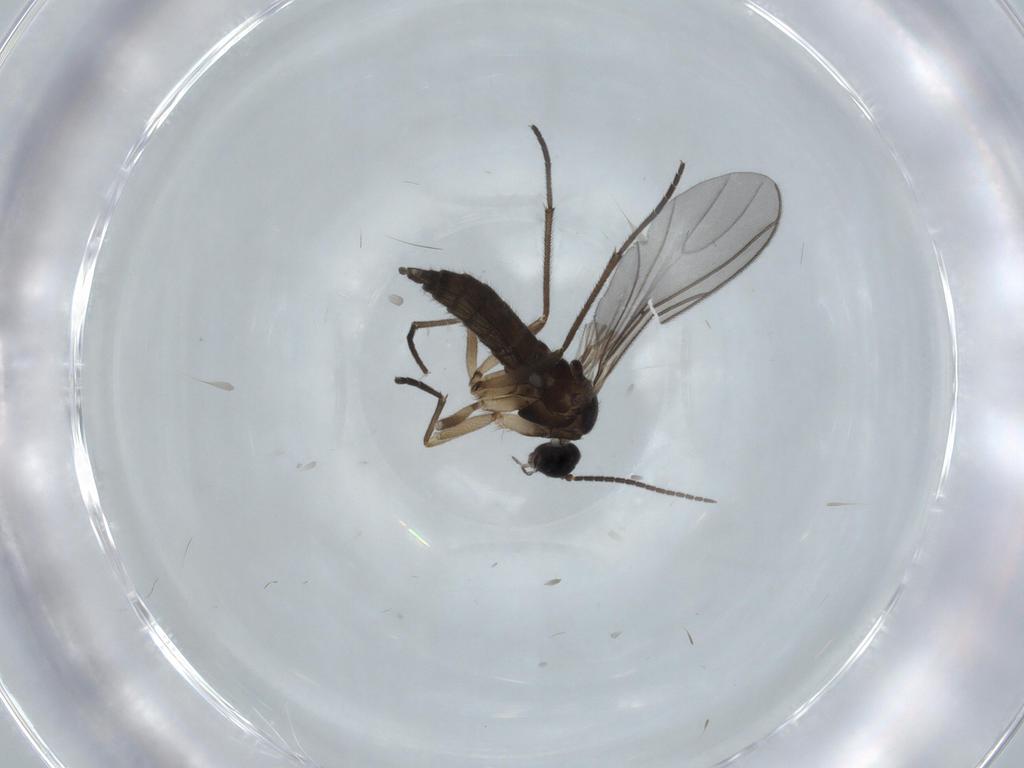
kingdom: Animalia
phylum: Arthropoda
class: Insecta
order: Diptera
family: Sciaridae
